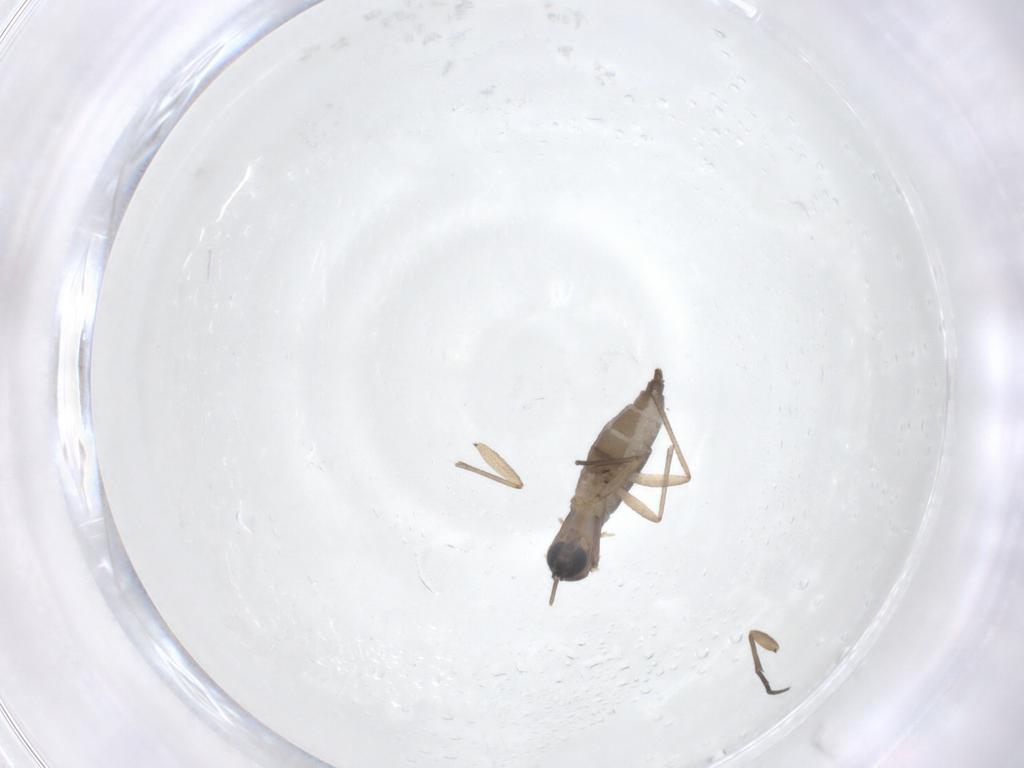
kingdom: Animalia
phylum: Arthropoda
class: Insecta
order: Diptera
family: Sciaridae
